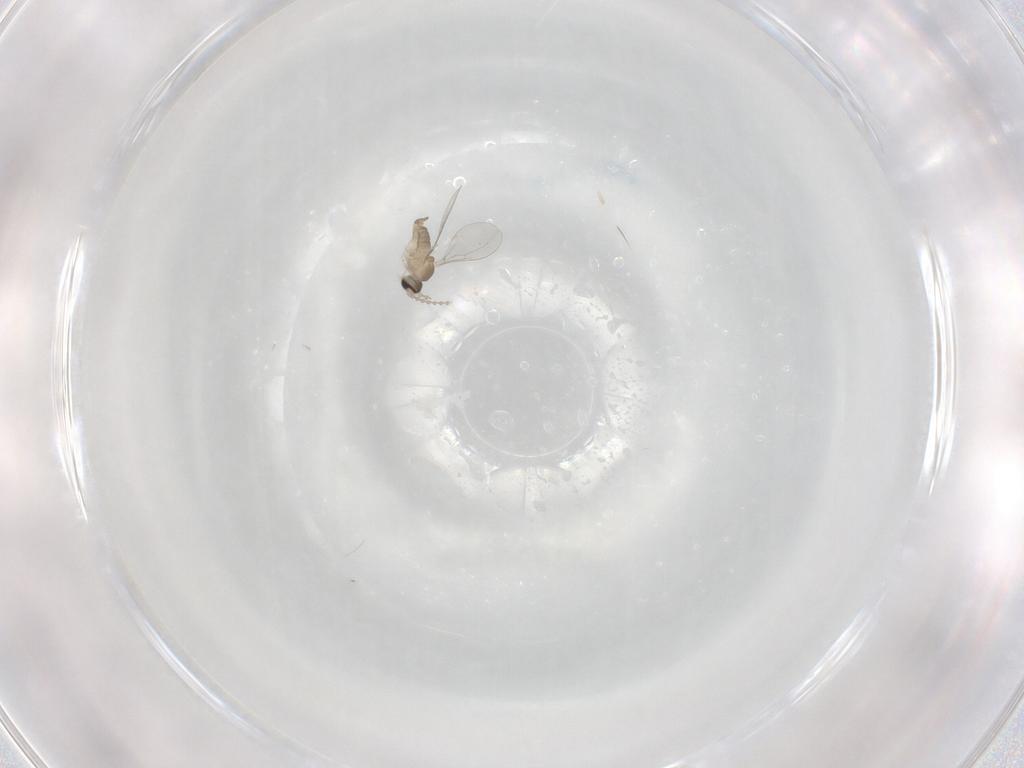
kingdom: Animalia
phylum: Arthropoda
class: Insecta
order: Diptera
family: Cecidomyiidae
